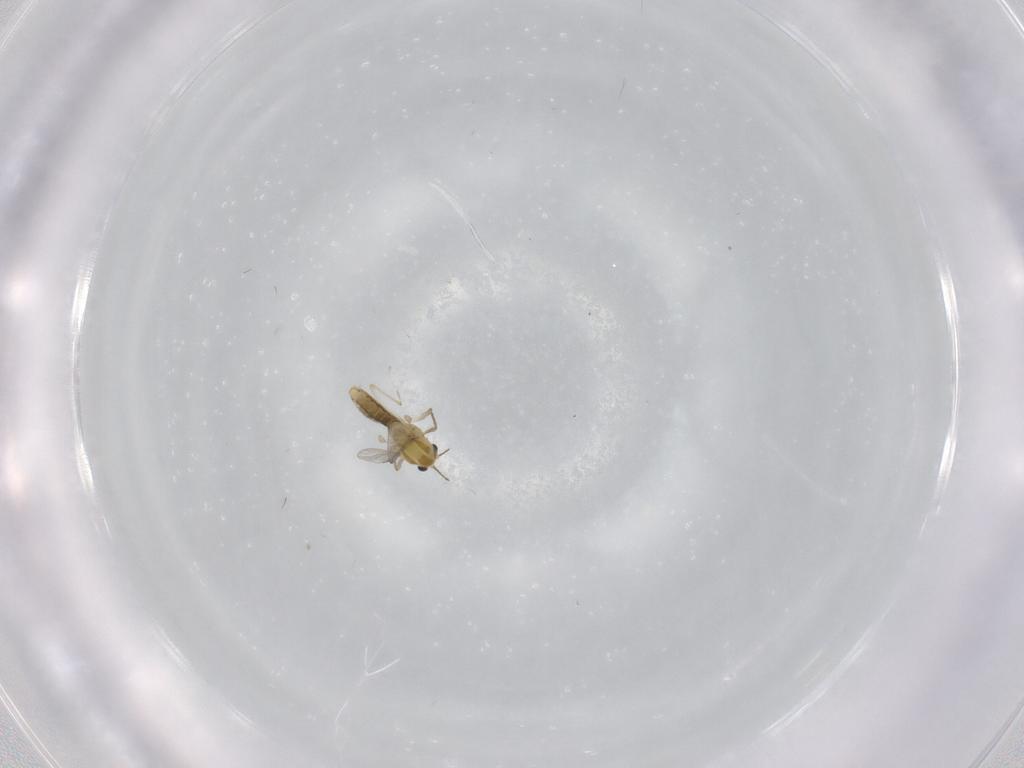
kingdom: Animalia
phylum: Arthropoda
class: Insecta
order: Diptera
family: Chironomidae
